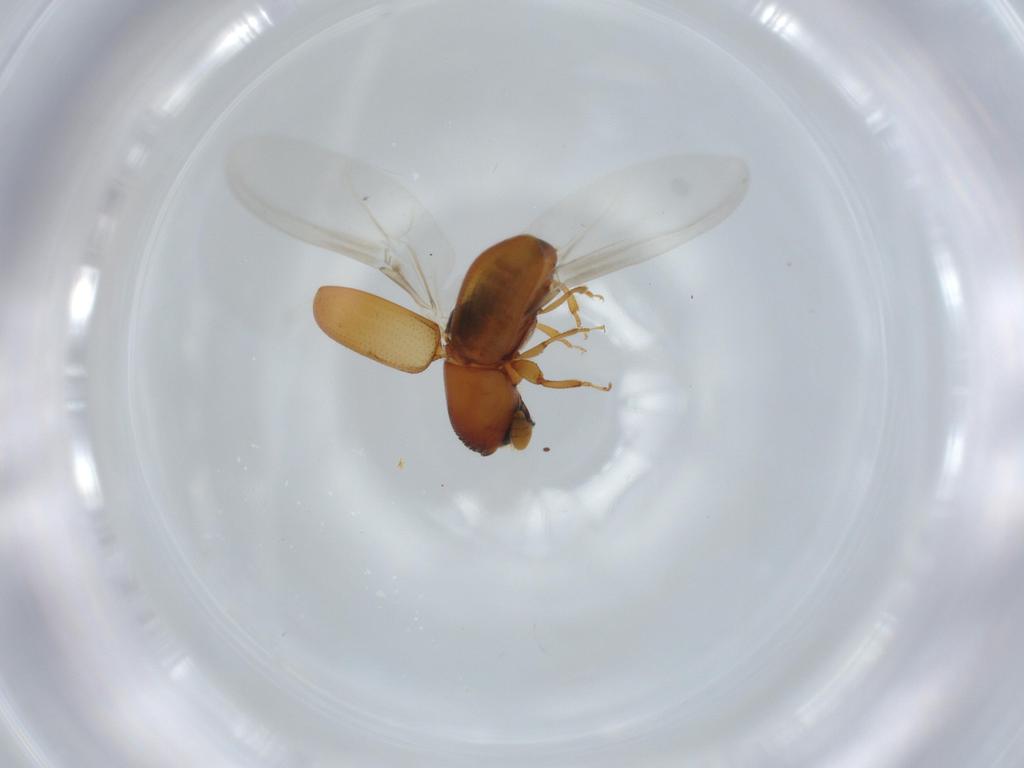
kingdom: Animalia
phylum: Arthropoda
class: Insecta
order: Coleoptera
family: Curculionidae
